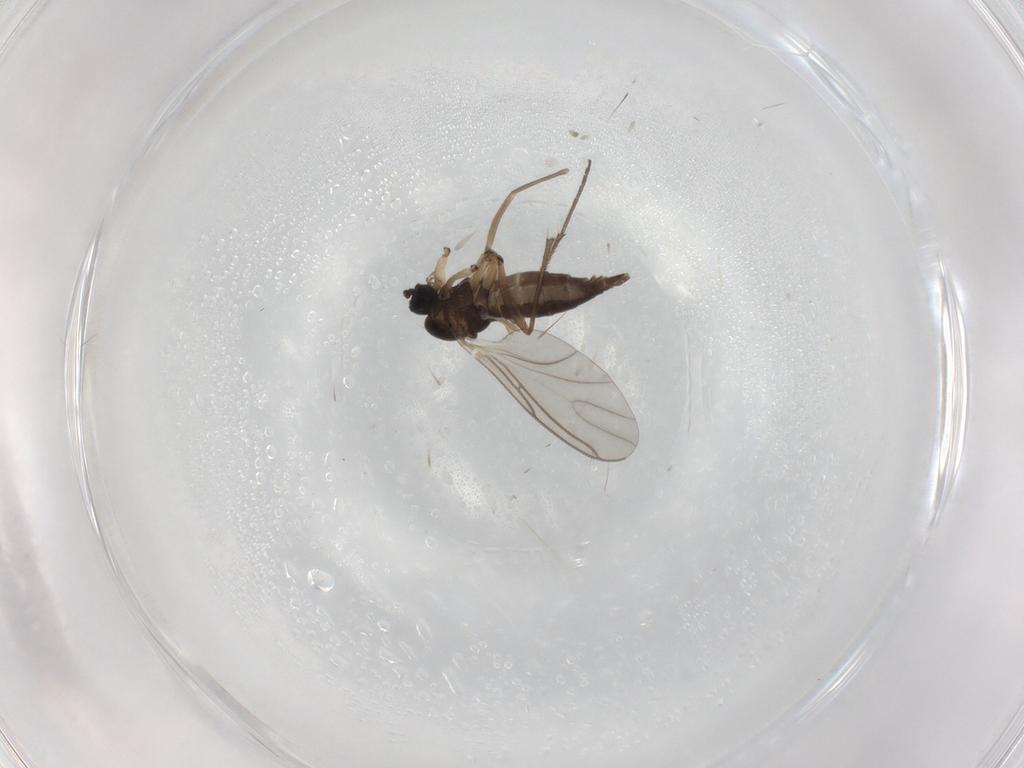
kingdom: Animalia
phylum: Arthropoda
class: Insecta
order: Diptera
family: Sciaridae
